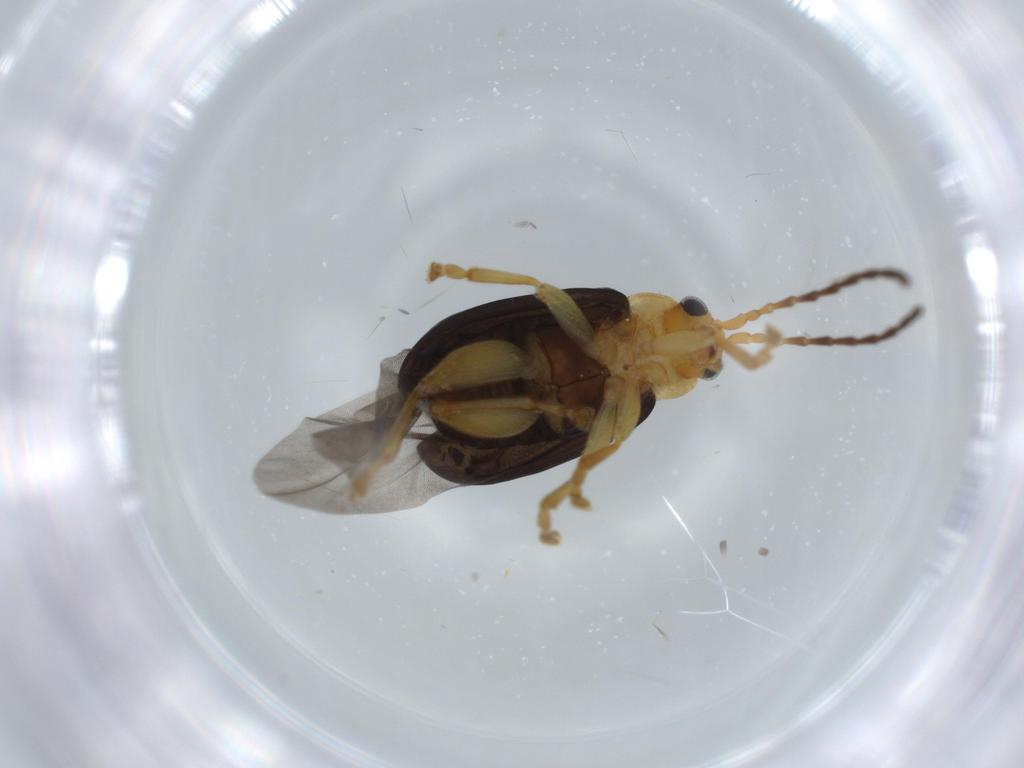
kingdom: Animalia
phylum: Arthropoda
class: Insecta
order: Coleoptera
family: Chrysomelidae
